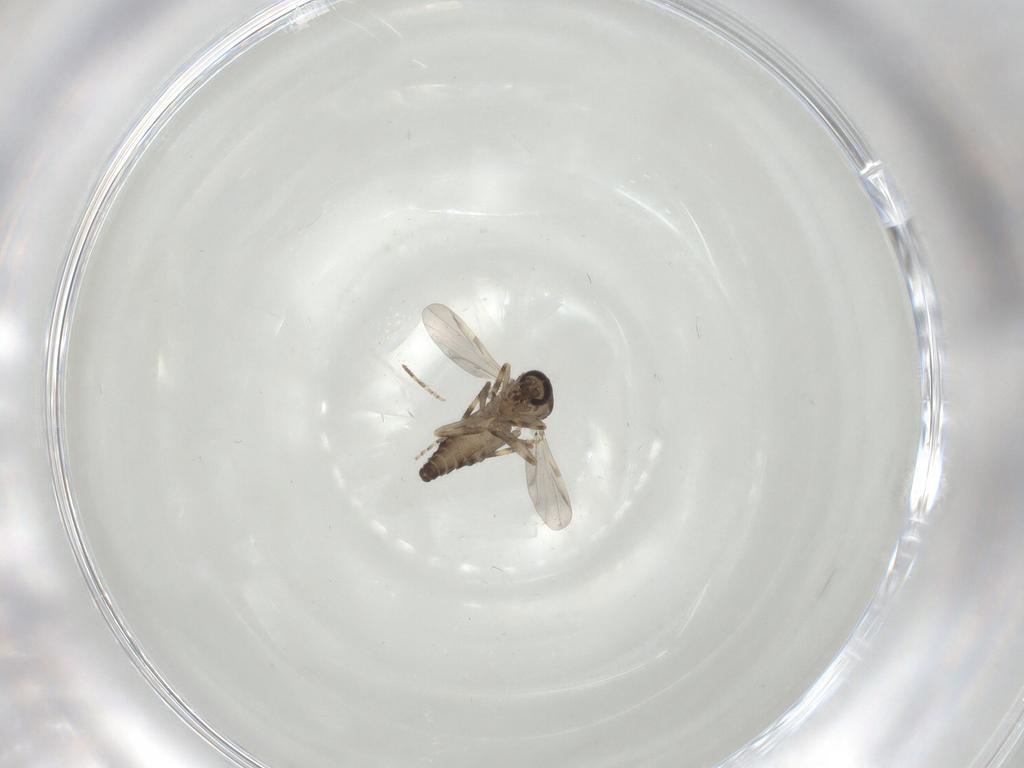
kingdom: Animalia
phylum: Arthropoda
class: Insecta
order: Diptera
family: Ceratopogonidae
